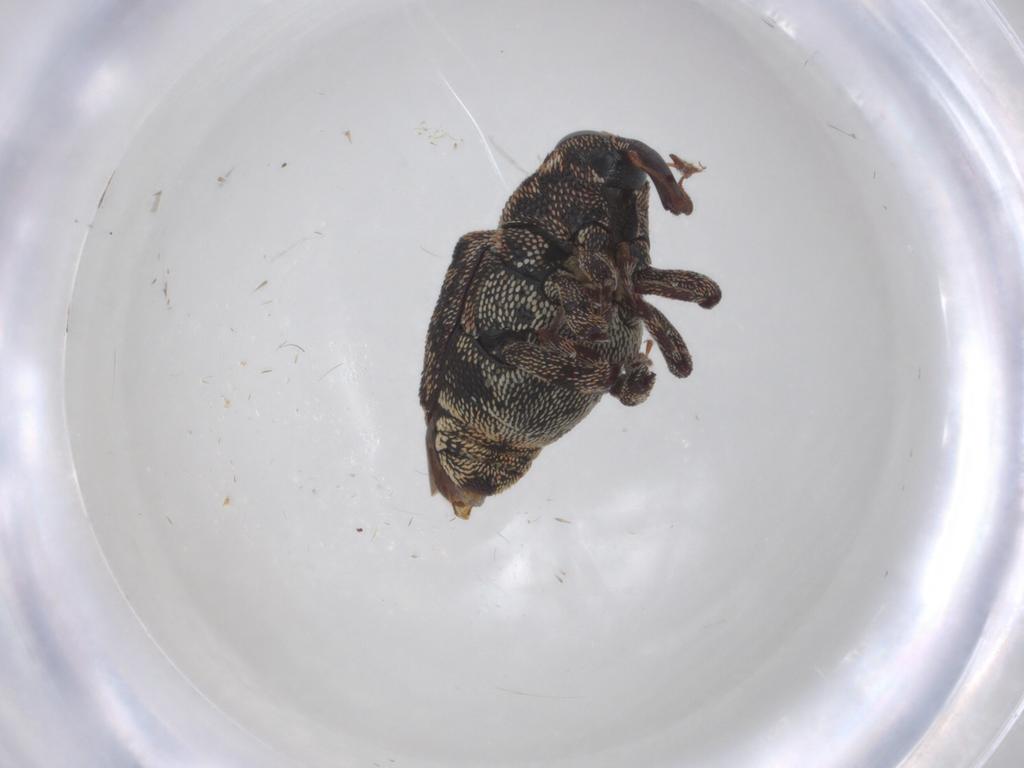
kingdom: Animalia
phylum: Arthropoda
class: Insecta
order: Coleoptera
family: Curculionidae
